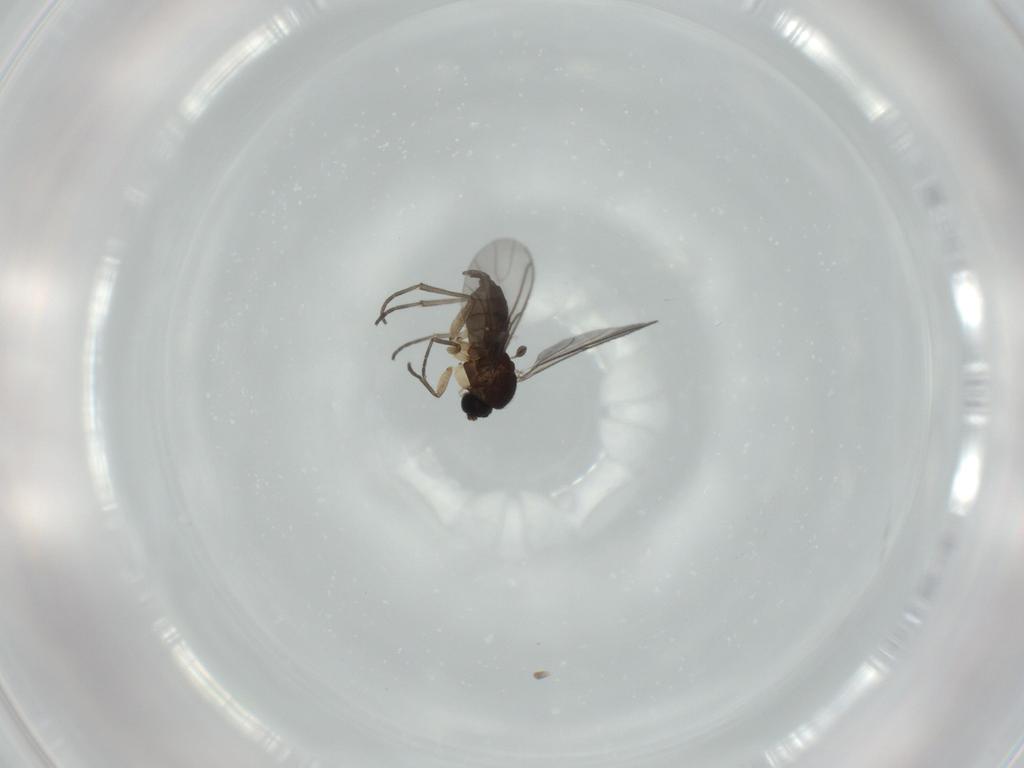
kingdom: Animalia
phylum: Arthropoda
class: Insecta
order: Diptera
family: Sciaridae
